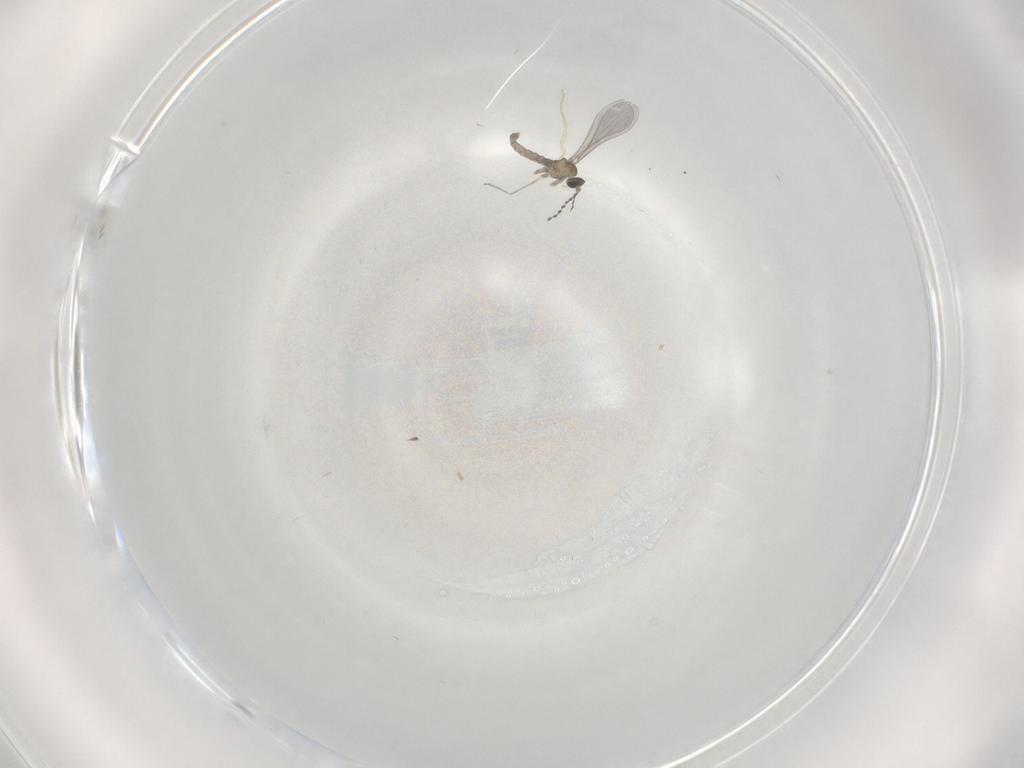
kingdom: Animalia
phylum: Arthropoda
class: Insecta
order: Diptera
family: Cecidomyiidae
